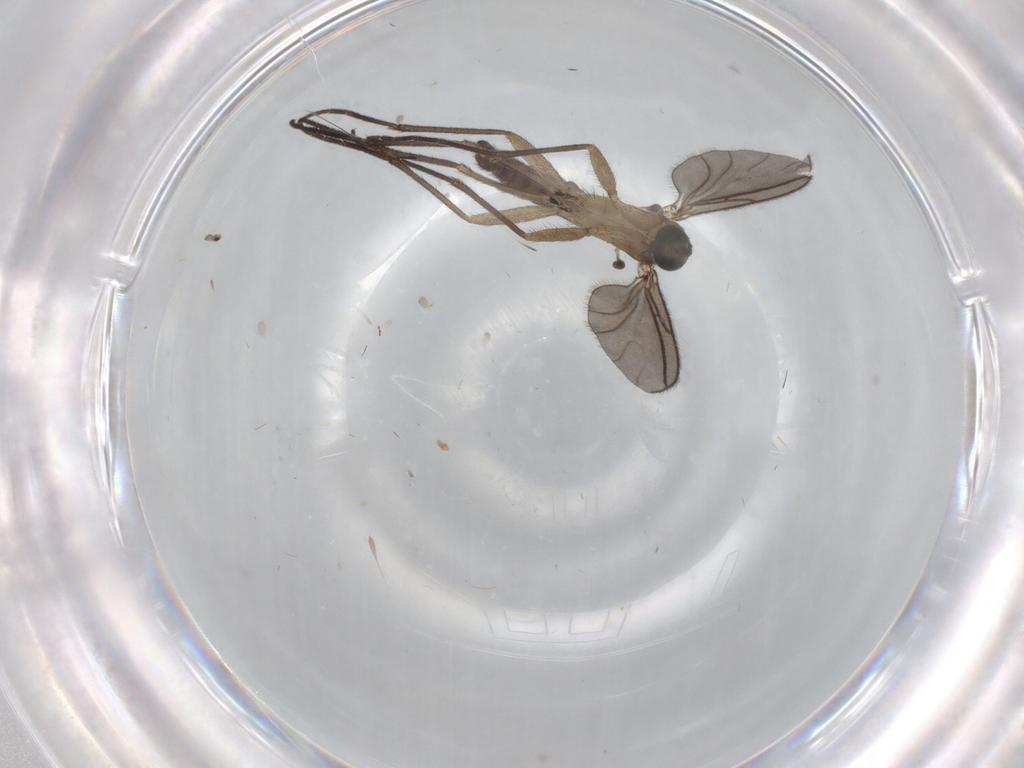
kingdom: Animalia
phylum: Arthropoda
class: Insecta
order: Diptera
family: Sciaridae
